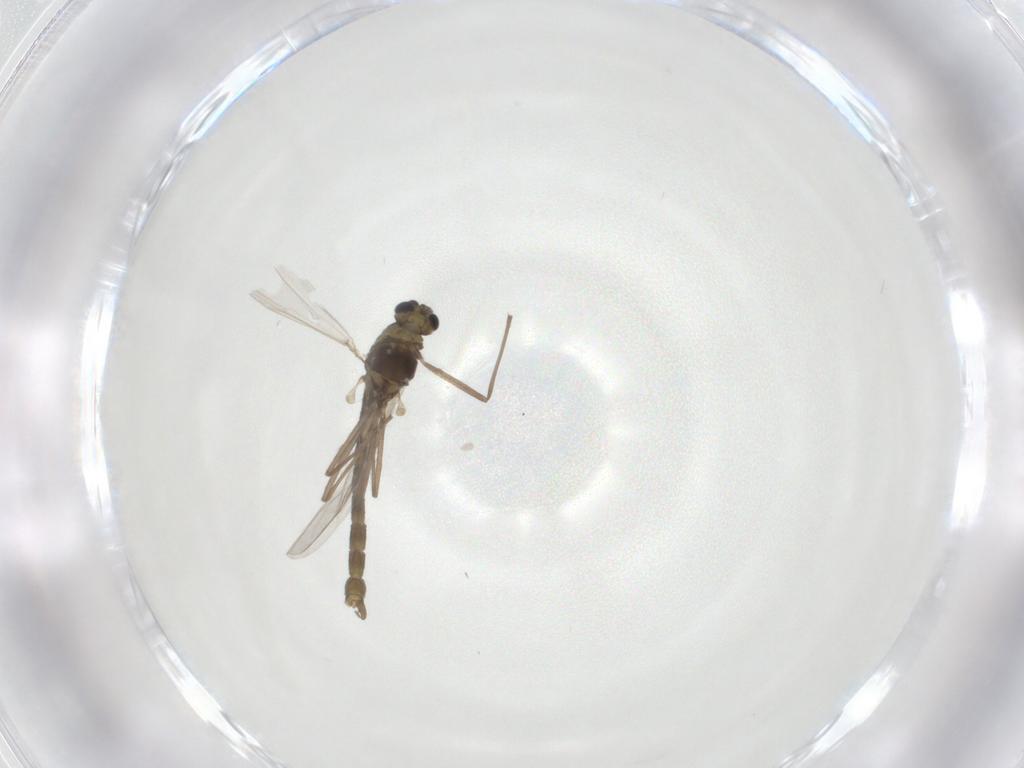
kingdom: Animalia
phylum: Arthropoda
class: Insecta
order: Diptera
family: Chironomidae
